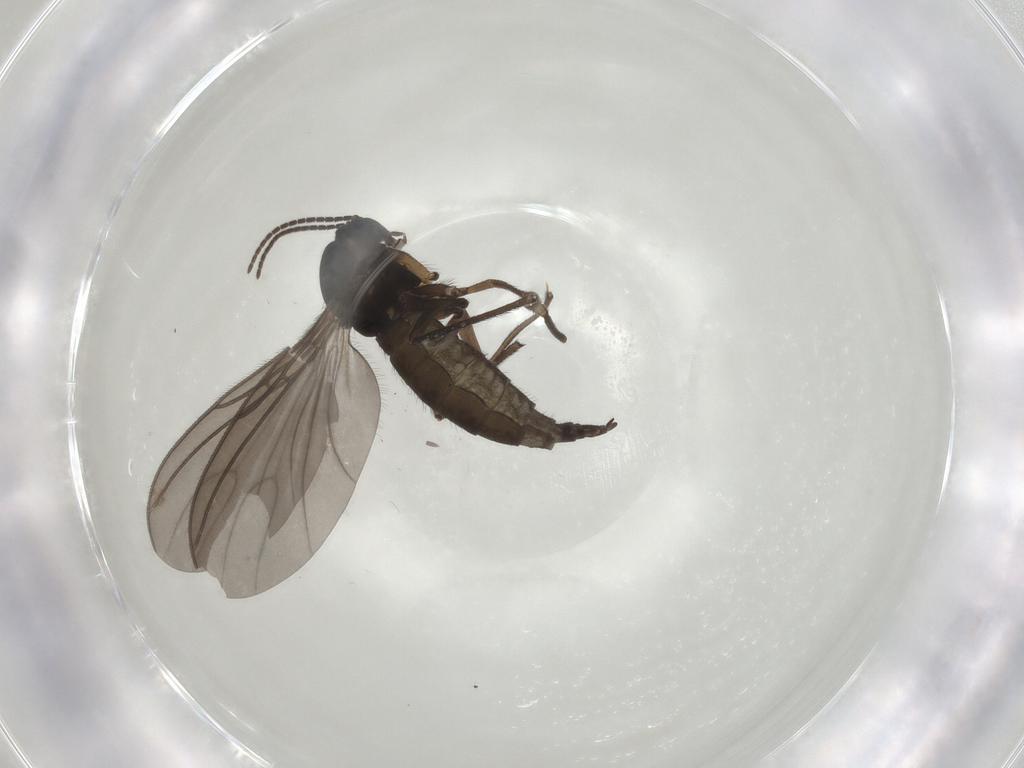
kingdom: Animalia
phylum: Arthropoda
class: Insecta
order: Diptera
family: Sciaridae
